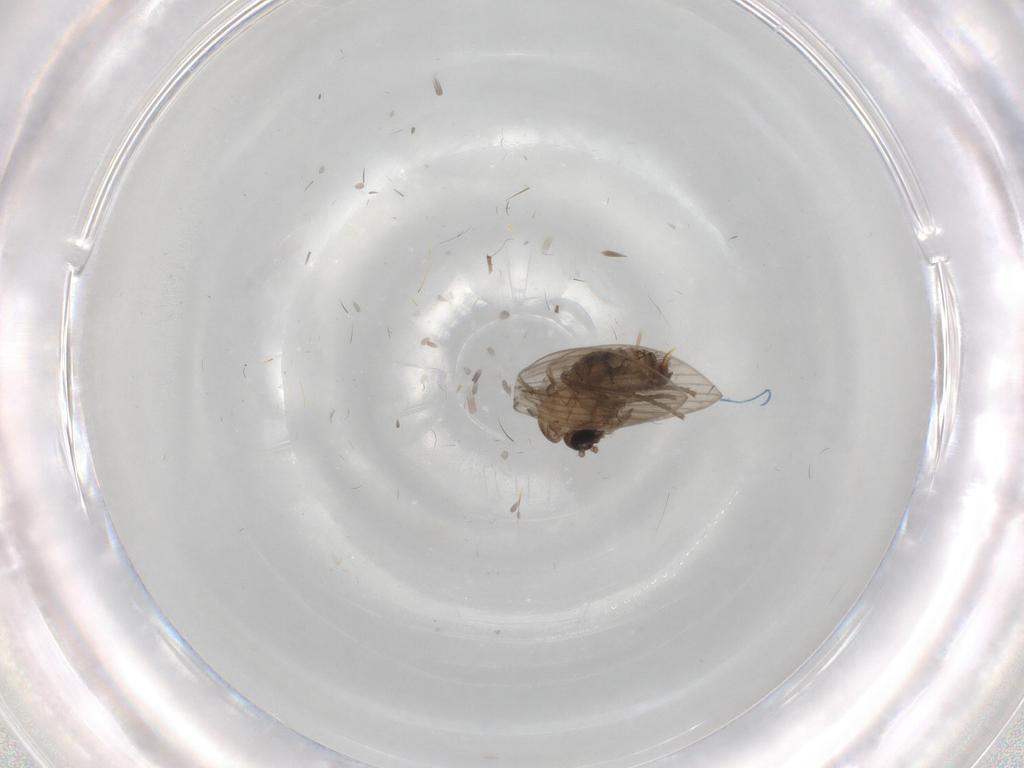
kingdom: Animalia
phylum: Arthropoda
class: Insecta
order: Diptera
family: Psychodidae
